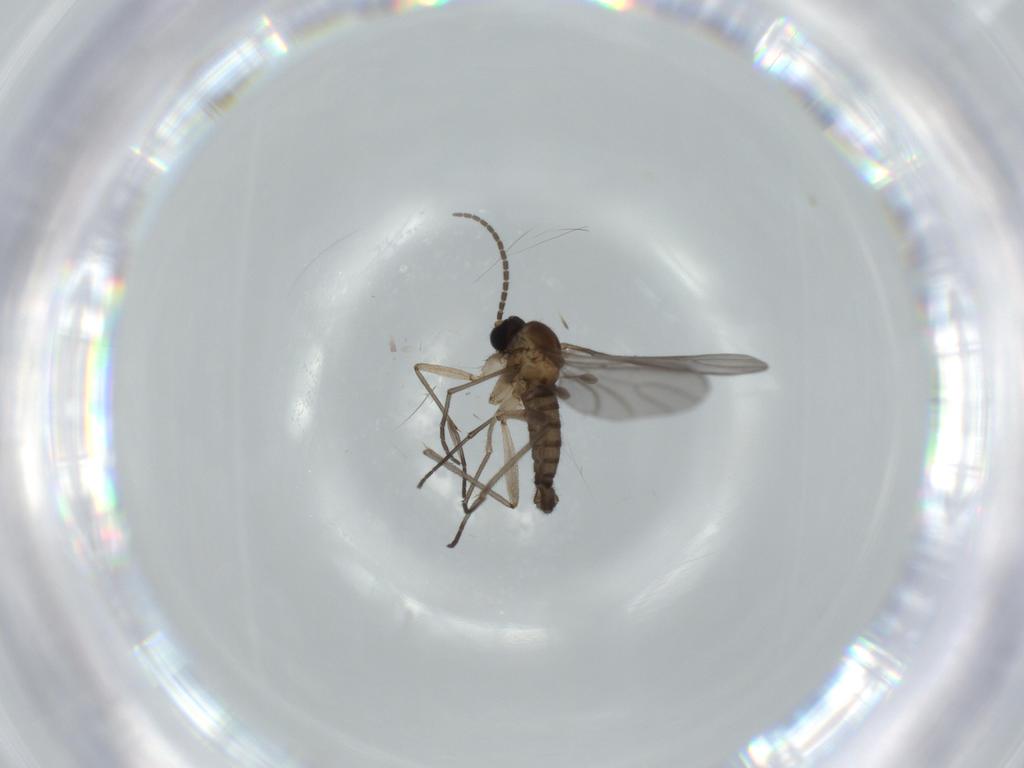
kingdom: Animalia
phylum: Arthropoda
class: Insecta
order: Diptera
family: Sciaridae
